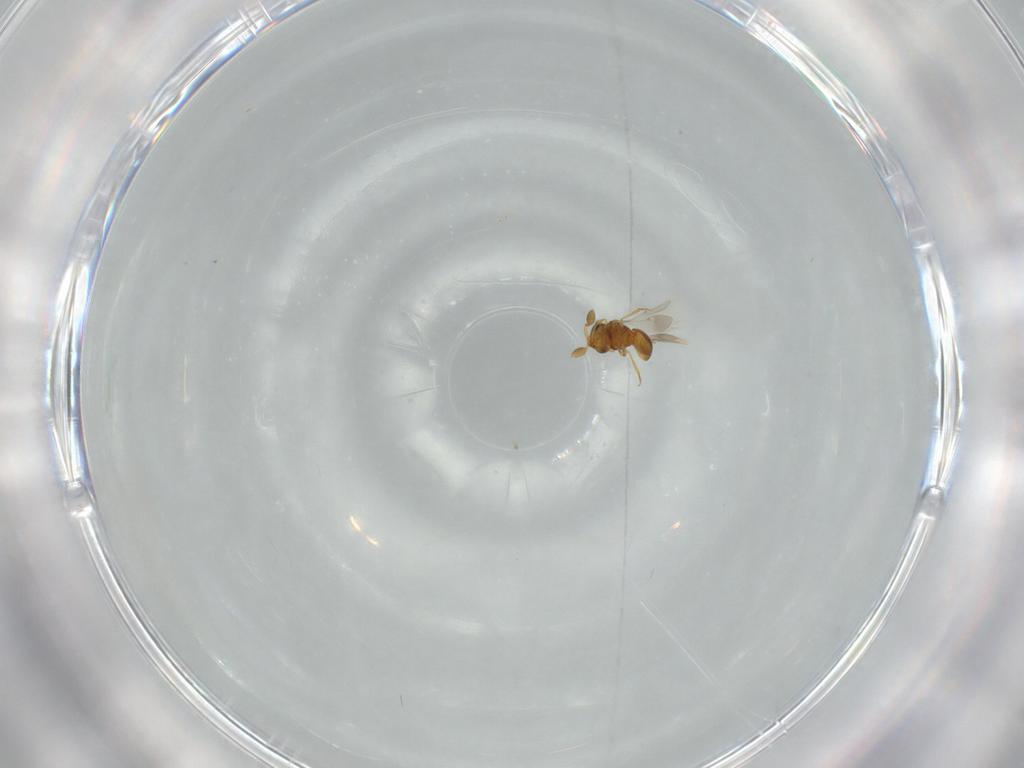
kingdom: Animalia
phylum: Arthropoda
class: Insecta
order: Hymenoptera
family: Scelionidae
